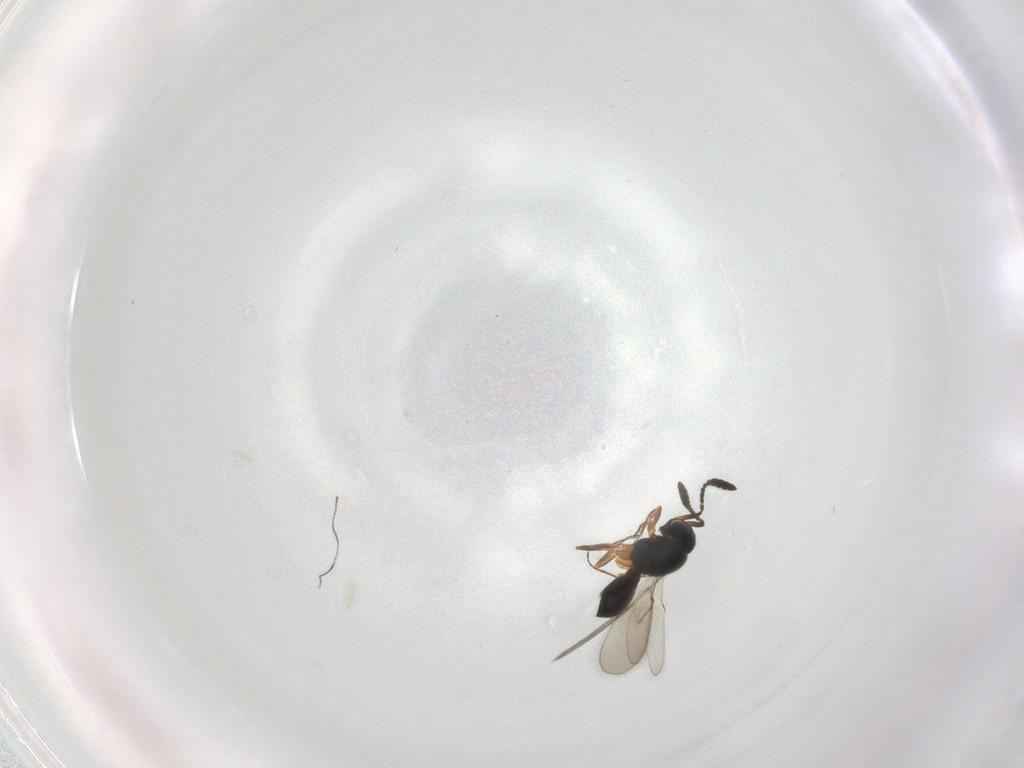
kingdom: Animalia
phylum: Arthropoda
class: Insecta
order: Hymenoptera
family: Scelionidae
